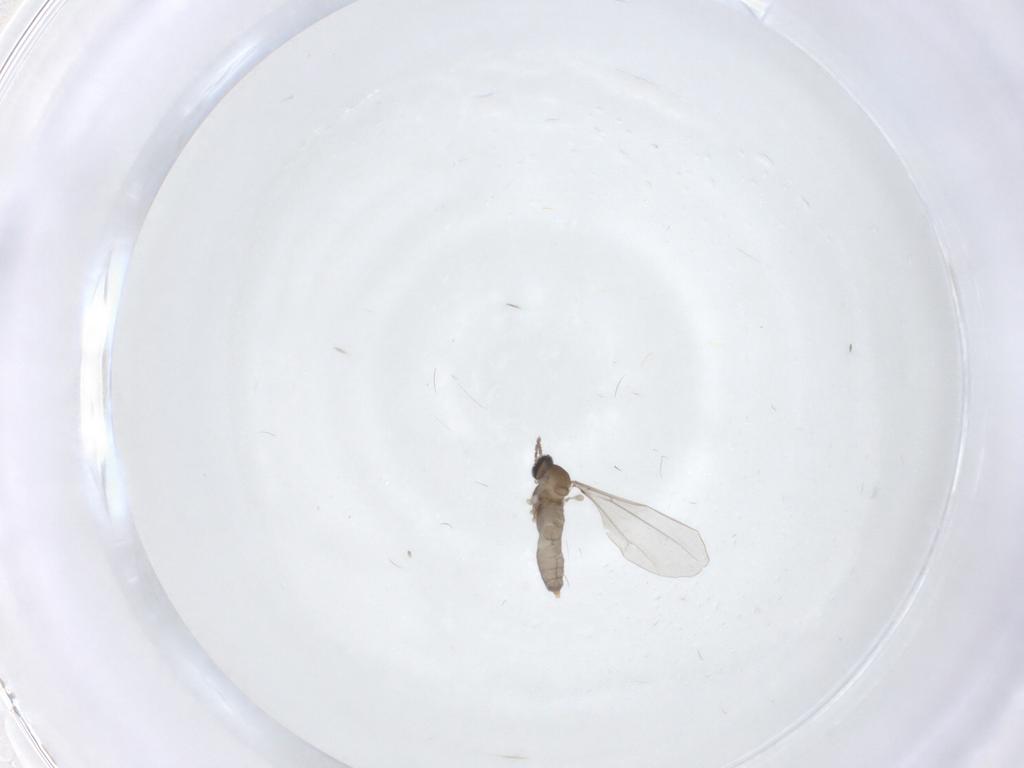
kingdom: Animalia
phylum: Arthropoda
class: Insecta
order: Diptera
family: Cecidomyiidae
